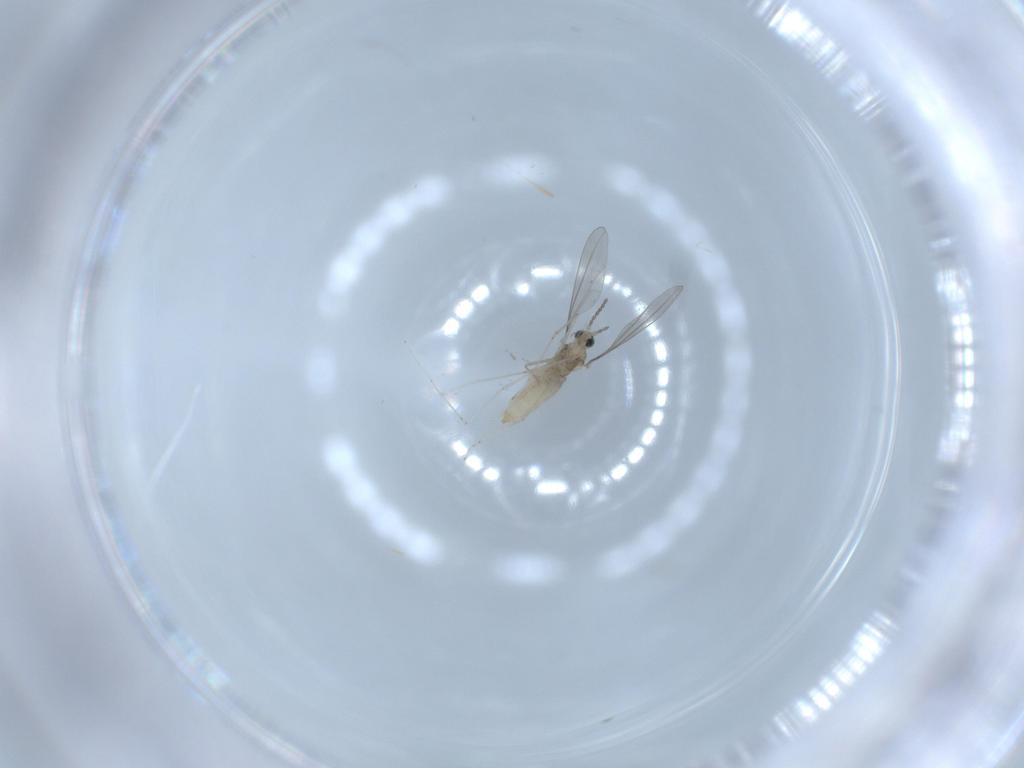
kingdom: Animalia
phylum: Arthropoda
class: Insecta
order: Diptera
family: Cecidomyiidae
